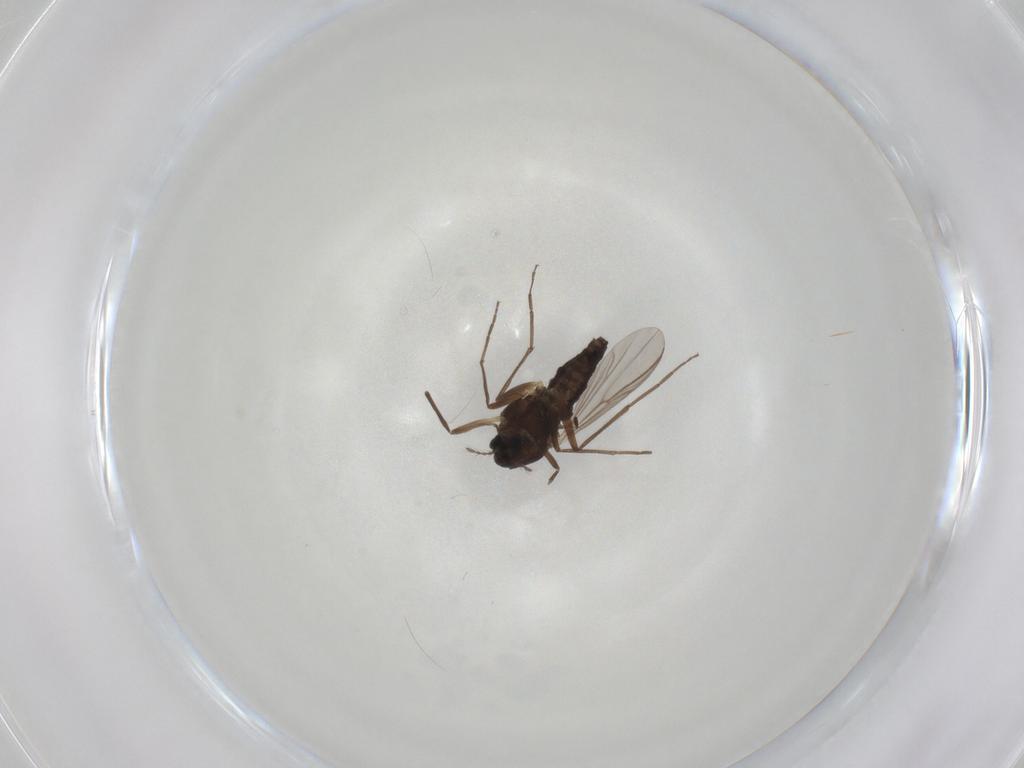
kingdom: Animalia
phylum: Arthropoda
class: Insecta
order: Diptera
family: Chironomidae
